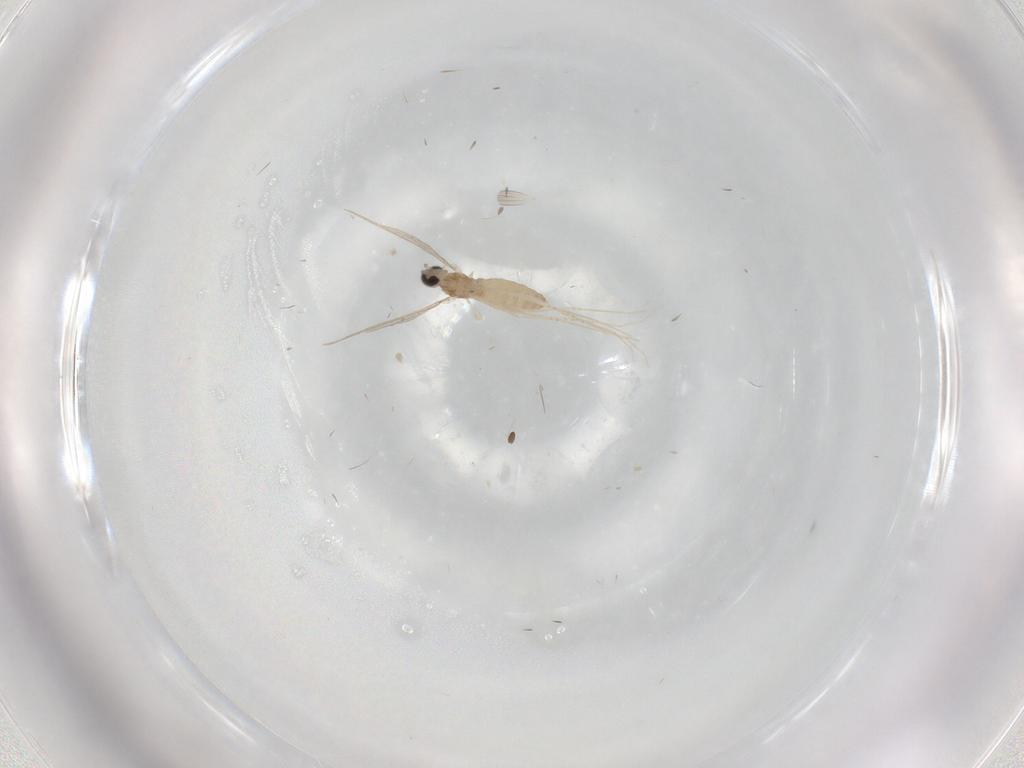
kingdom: Animalia
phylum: Arthropoda
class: Insecta
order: Diptera
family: Cecidomyiidae
